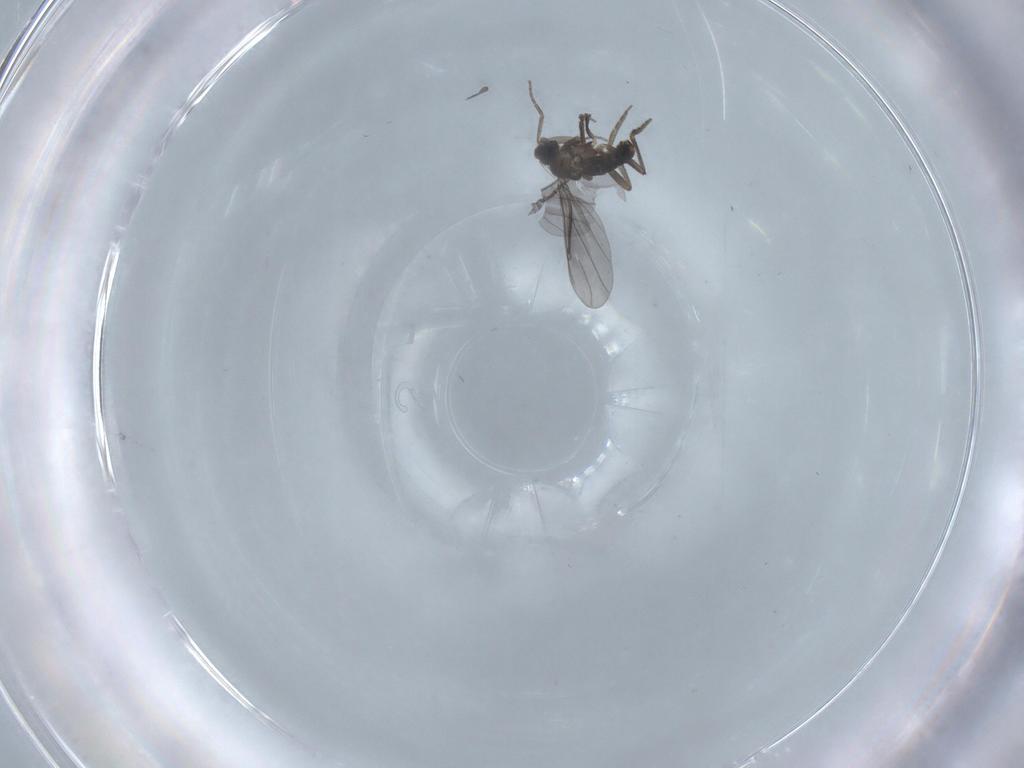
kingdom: Animalia
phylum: Arthropoda
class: Insecta
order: Diptera
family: Phoridae
